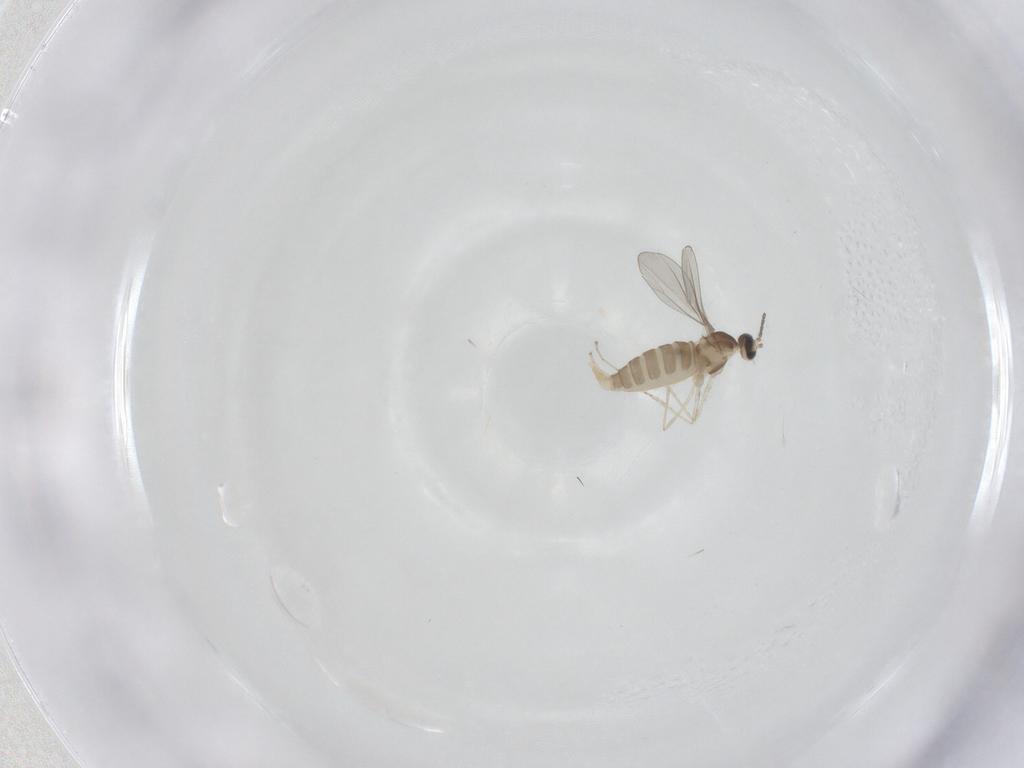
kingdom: Animalia
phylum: Arthropoda
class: Insecta
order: Diptera
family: Cecidomyiidae
